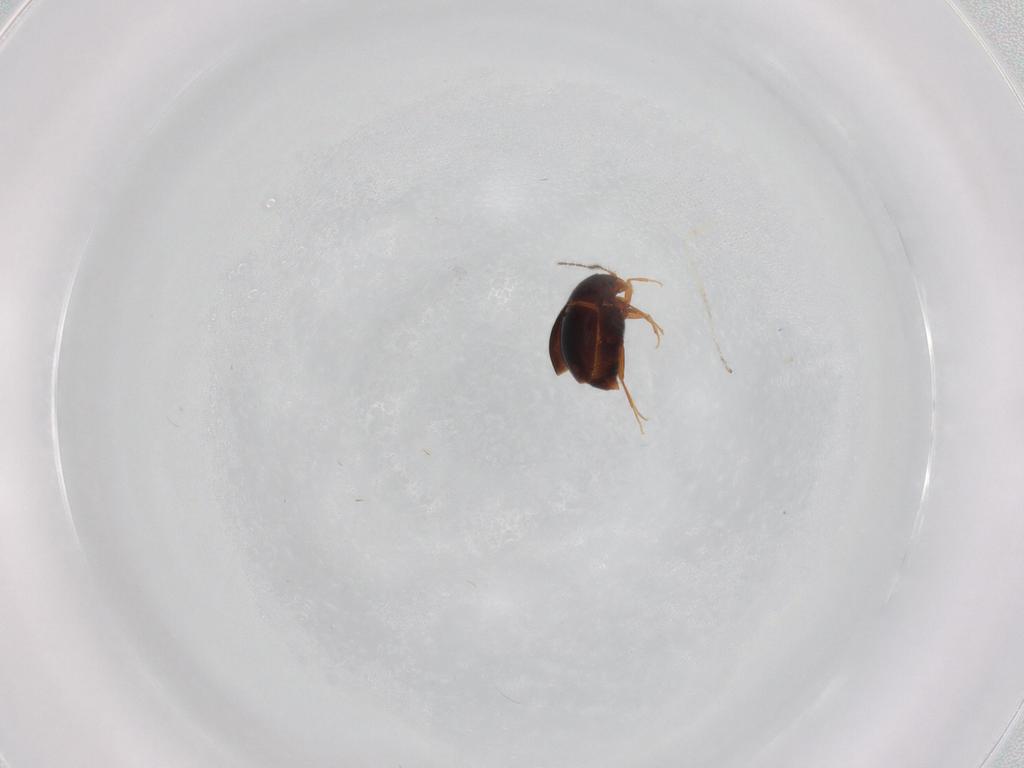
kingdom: Animalia
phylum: Arthropoda
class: Insecta
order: Coleoptera
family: Staphylinidae
